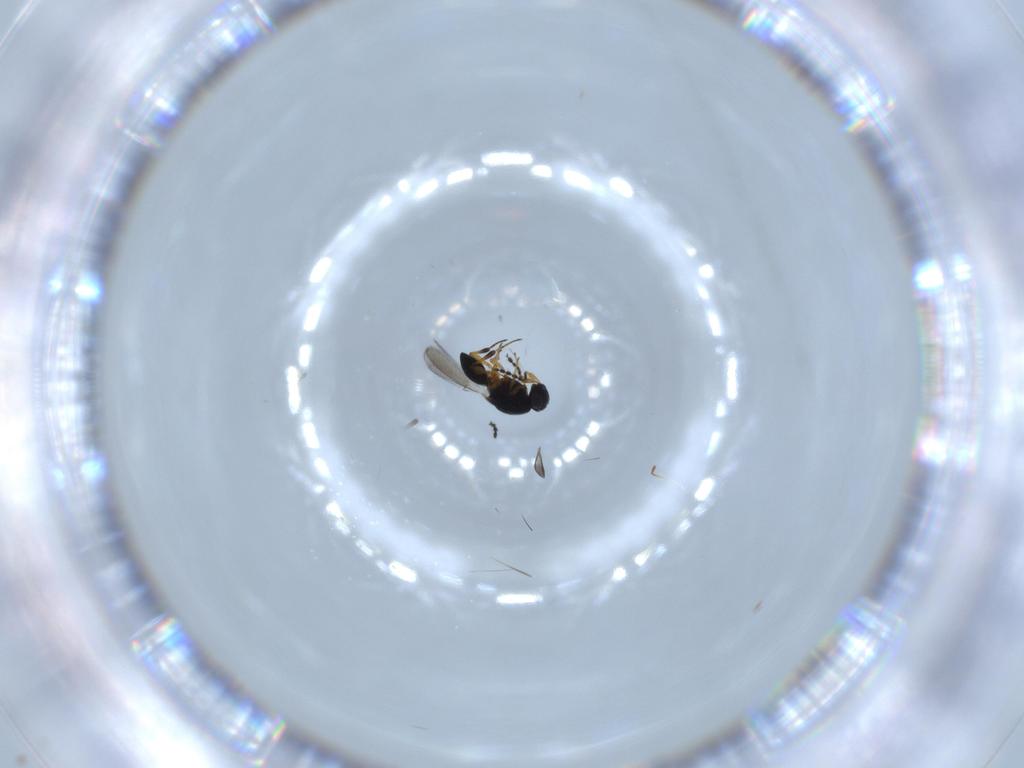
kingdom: Animalia
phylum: Arthropoda
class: Insecta
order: Hymenoptera
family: Platygastridae
